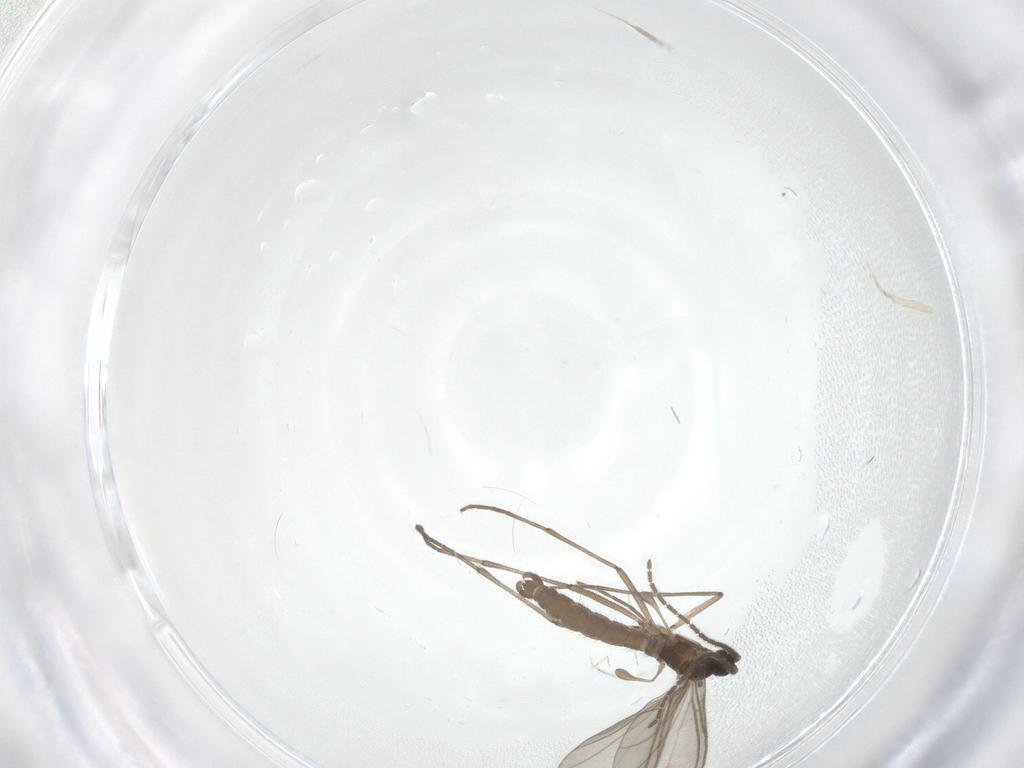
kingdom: Animalia
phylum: Arthropoda
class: Insecta
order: Diptera
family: Sciaridae
